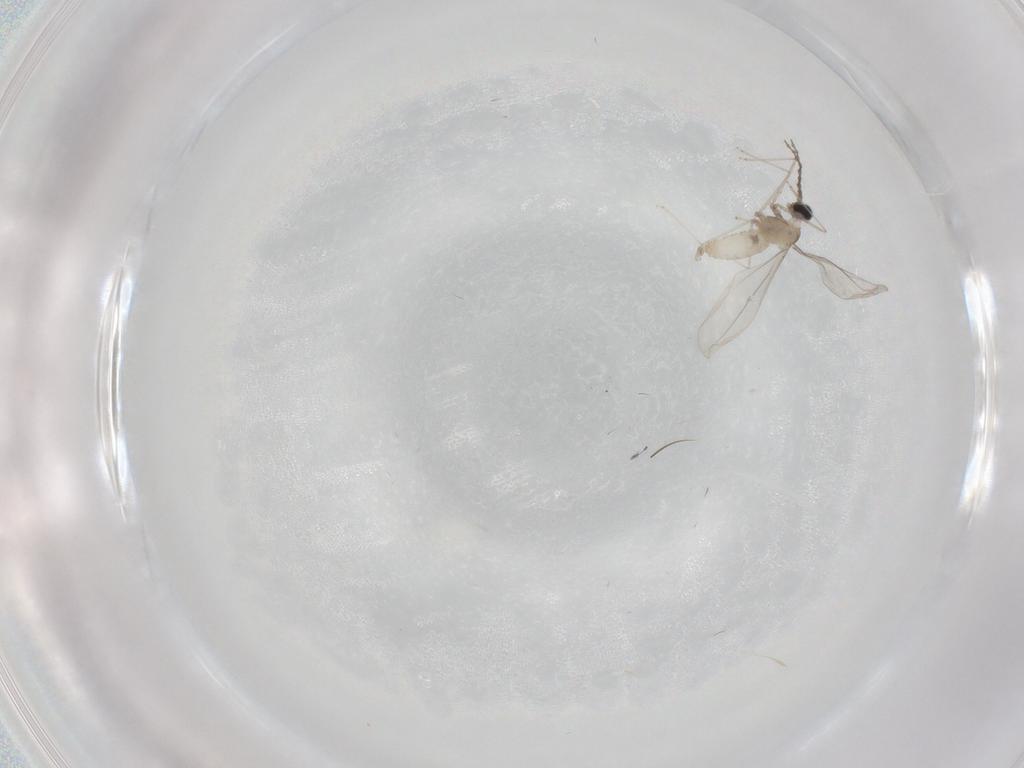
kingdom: Animalia
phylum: Arthropoda
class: Insecta
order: Diptera
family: Cecidomyiidae
